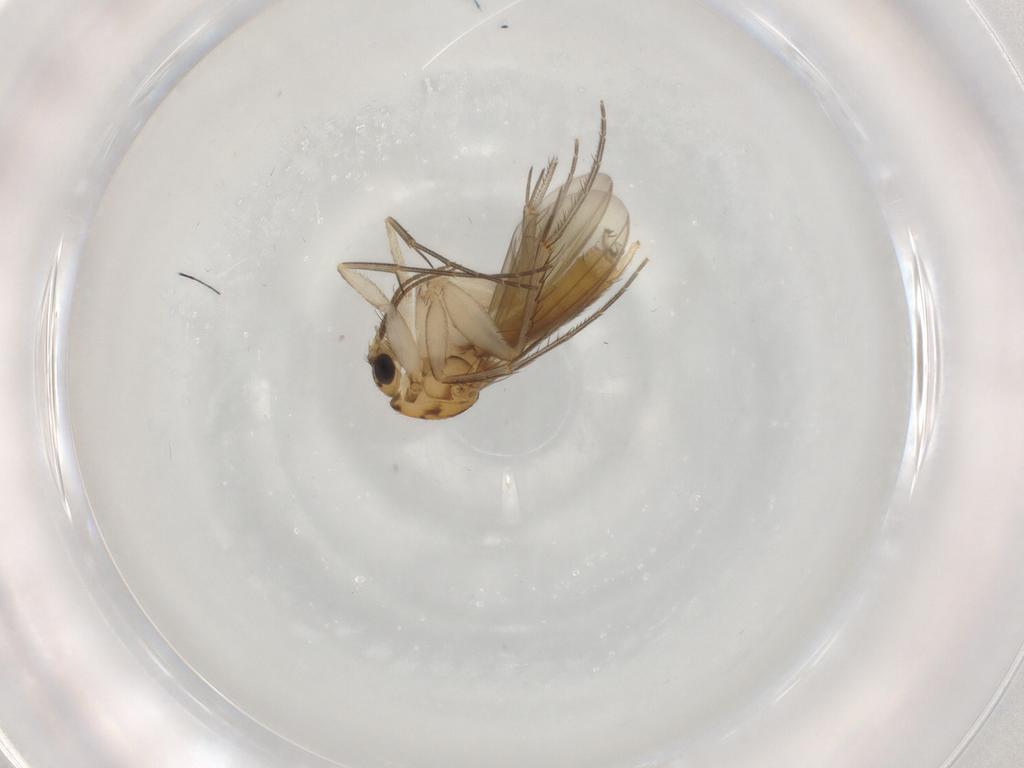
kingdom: Animalia
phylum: Arthropoda
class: Insecta
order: Diptera
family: Mycetophilidae
